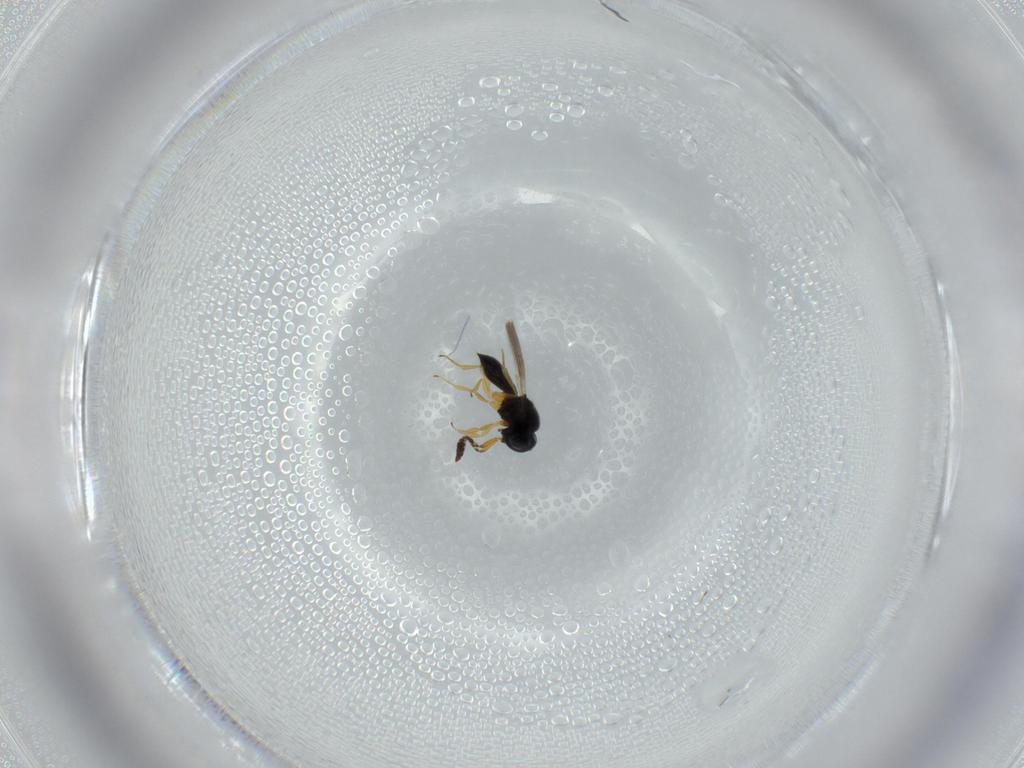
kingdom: Animalia
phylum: Arthropoda
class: Insecta
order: Hymenoptera
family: Scelionidae
